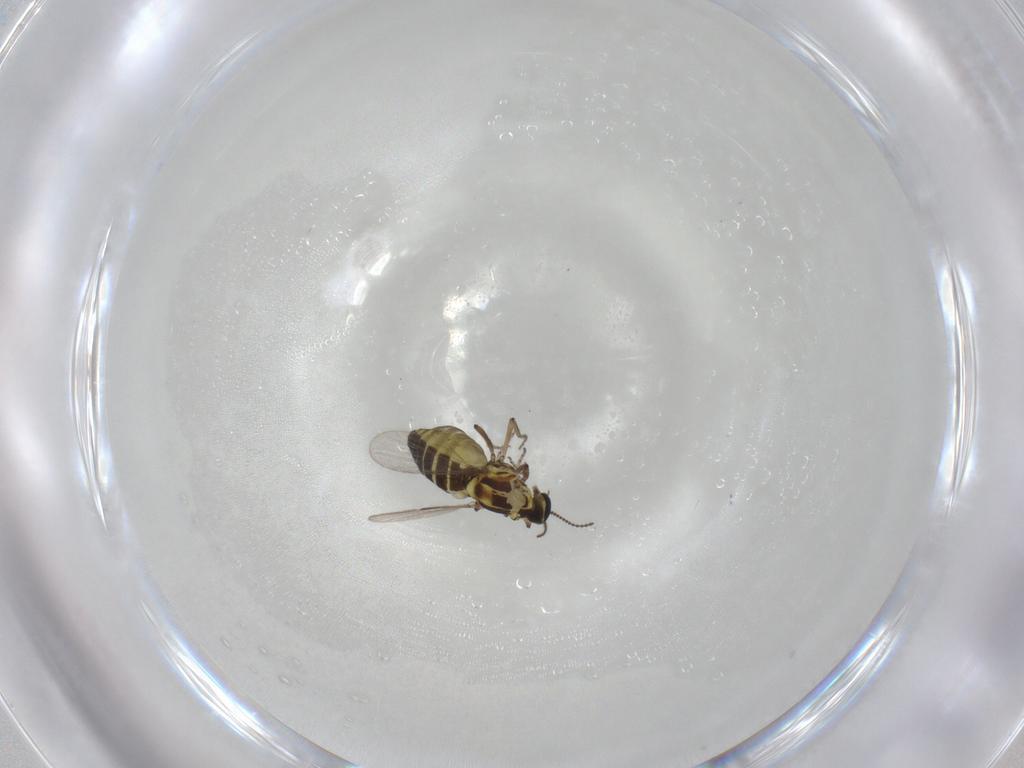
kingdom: Animalia
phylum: Arthropoda
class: Insecta
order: Diptera
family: Ceratopogonidae
